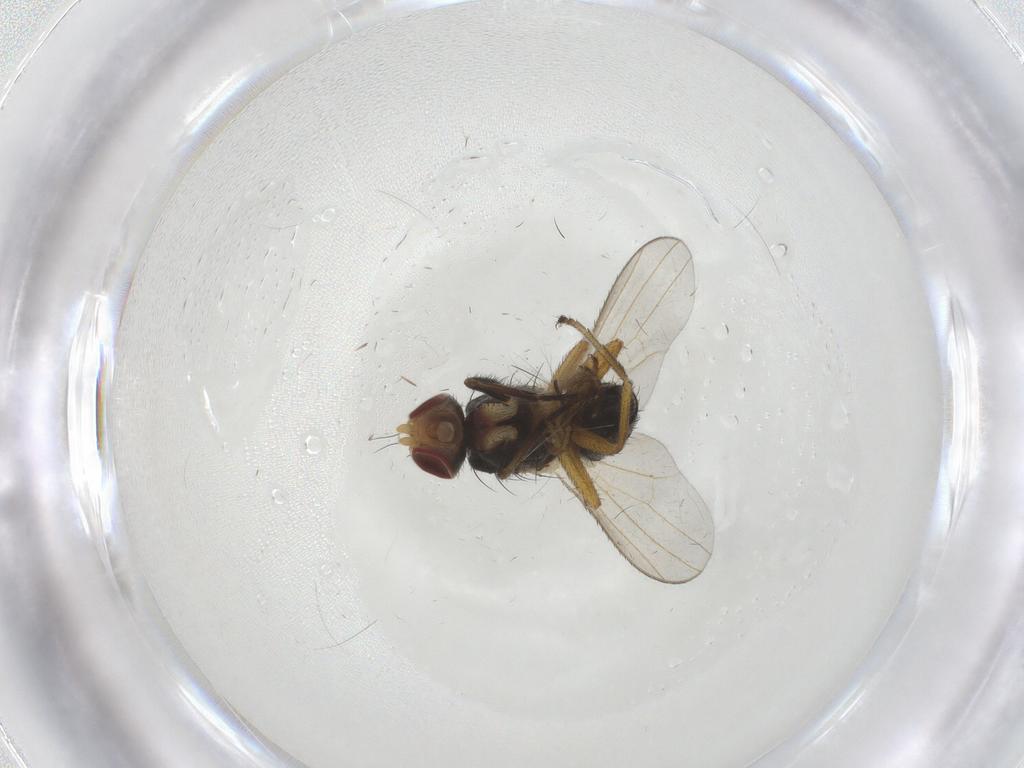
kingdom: Animalia
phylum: Arthropoda
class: Insecta
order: Diptera
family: Heleomyzidae
